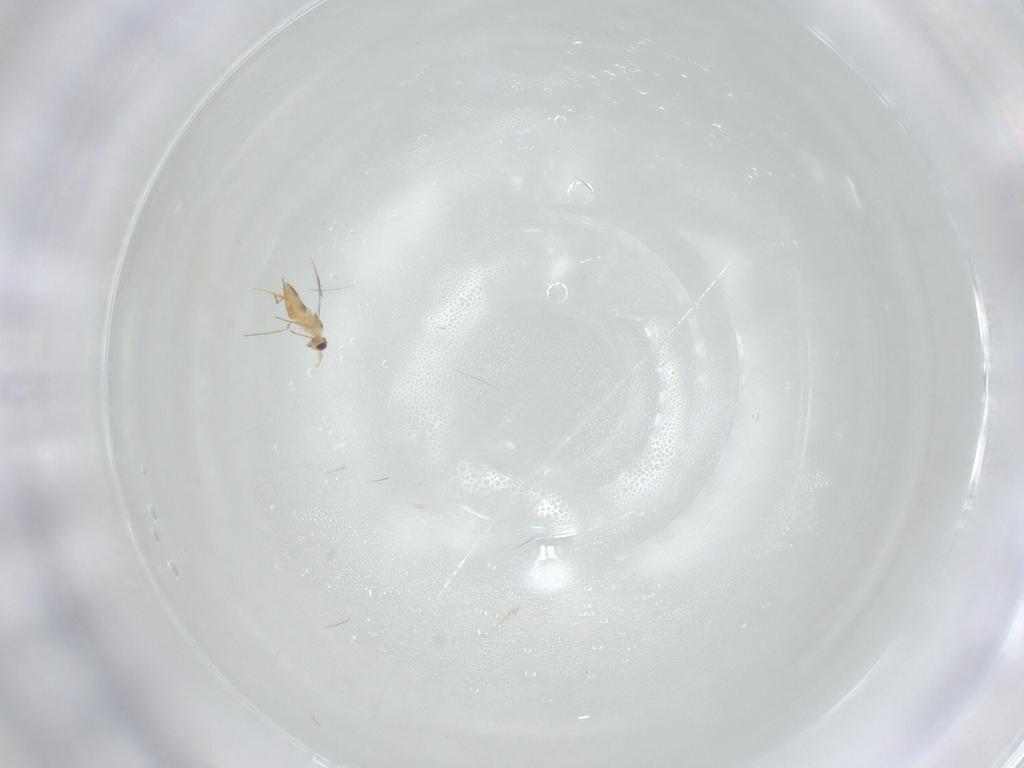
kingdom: Animalia
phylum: Arthropoda
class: Insecta
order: Hymenoptera
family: Mymaridae
